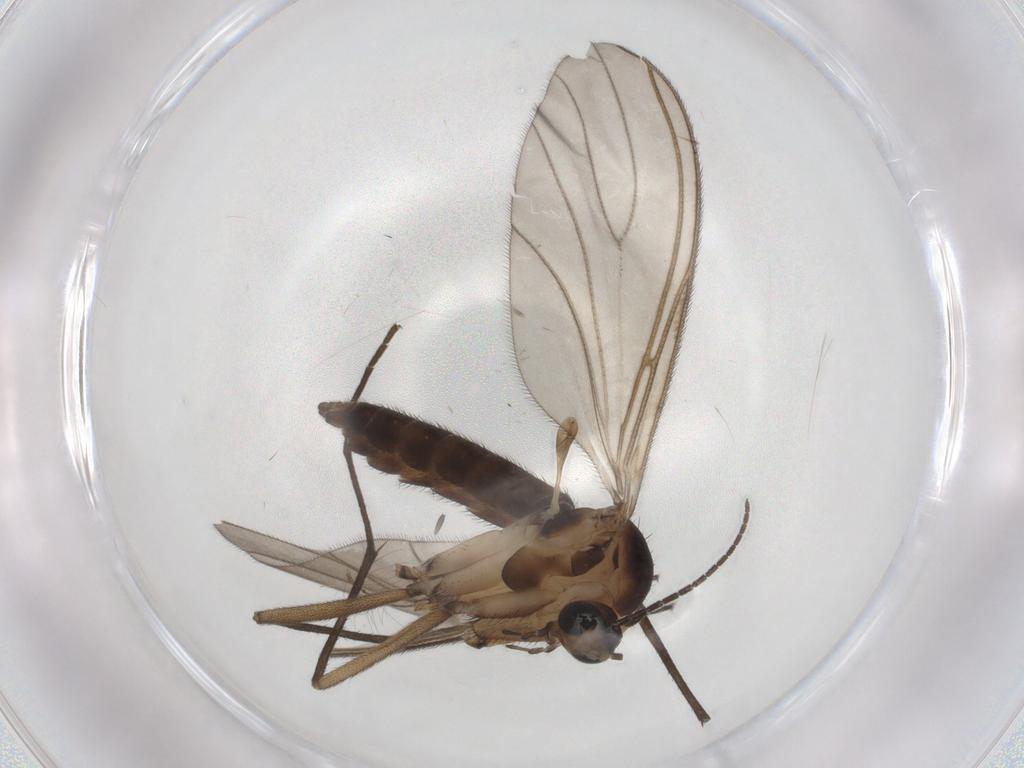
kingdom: Animalia
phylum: Arthropoda
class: Insecta
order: Diptera
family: Sciaridae
